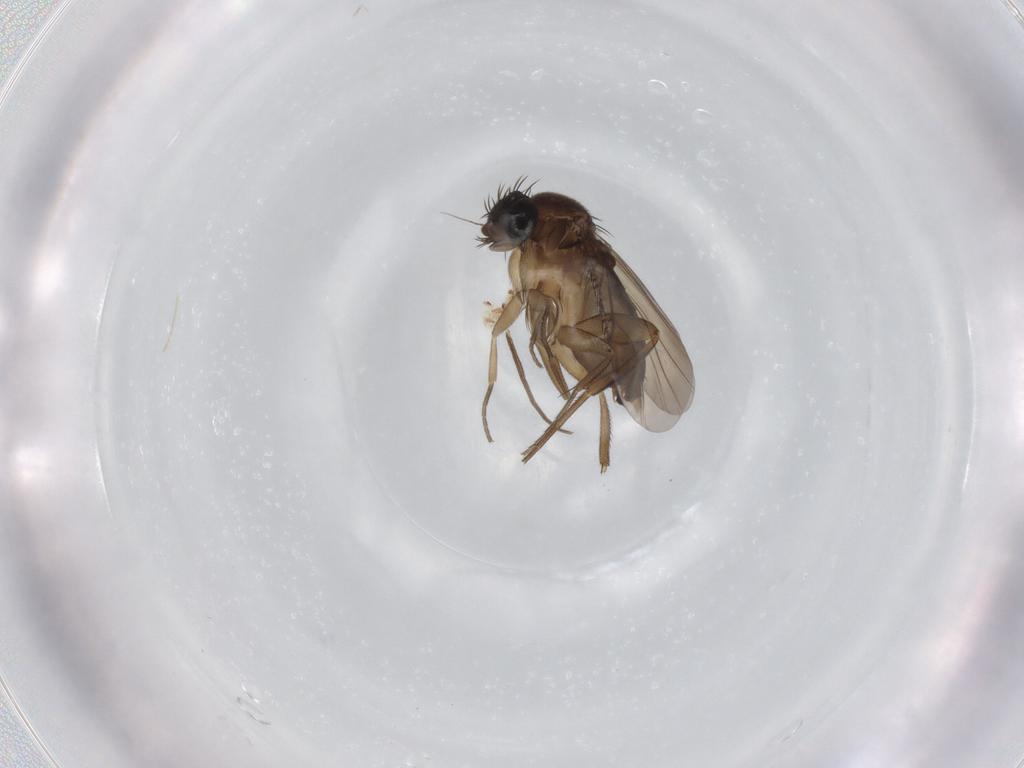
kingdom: Animalia
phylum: Arthropoda
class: Insecta
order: Diptera
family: Phoridae
